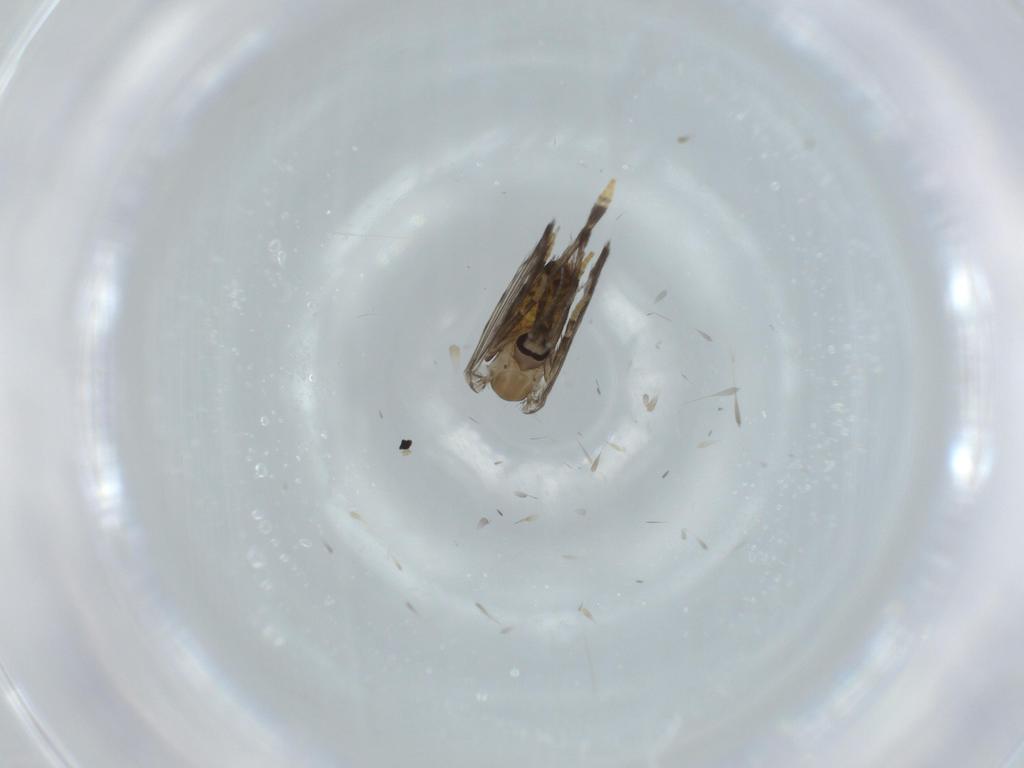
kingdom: Animalia
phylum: Arthropoda
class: Insecta
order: Diptera
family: Psychodidae
